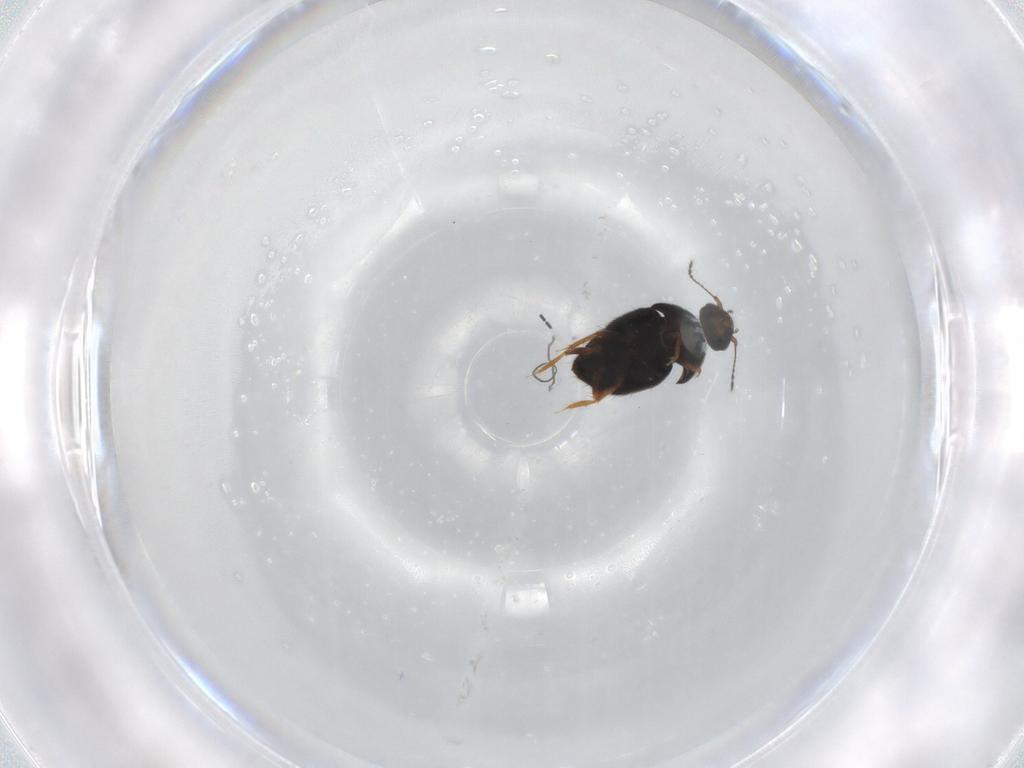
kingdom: Animalia
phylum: Arthropoda
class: Insecta
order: Coleoptera
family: Ptiliidae
